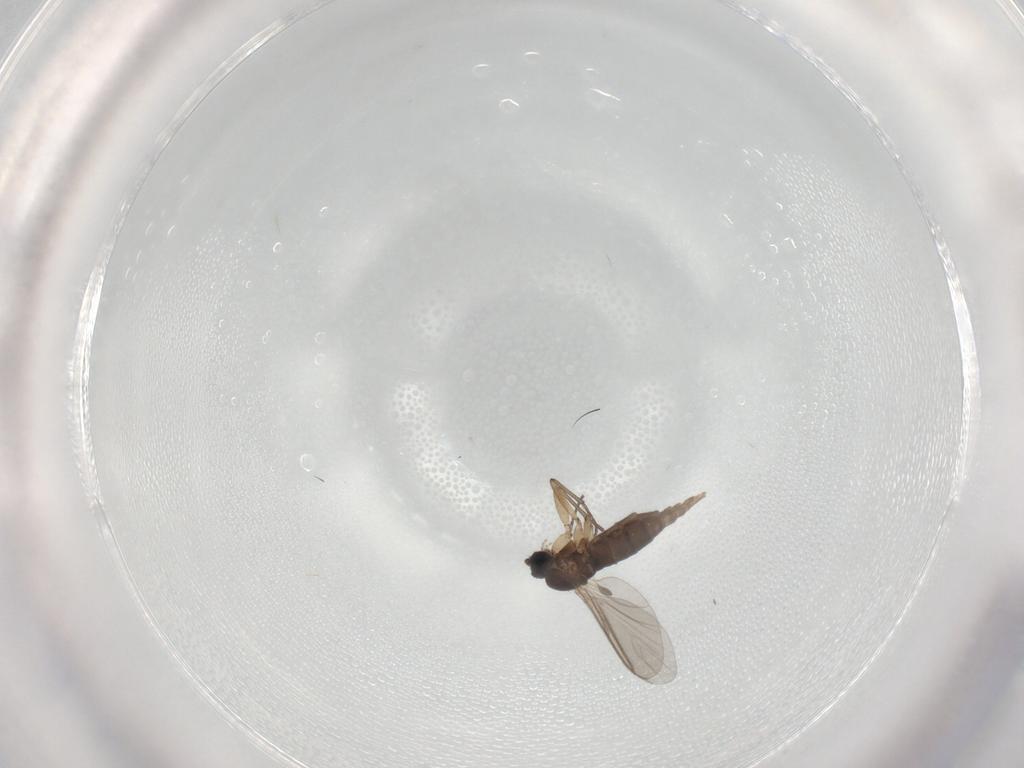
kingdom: Animalia
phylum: Arthropoda
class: Insecta
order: Diptera
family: Sciaridae
